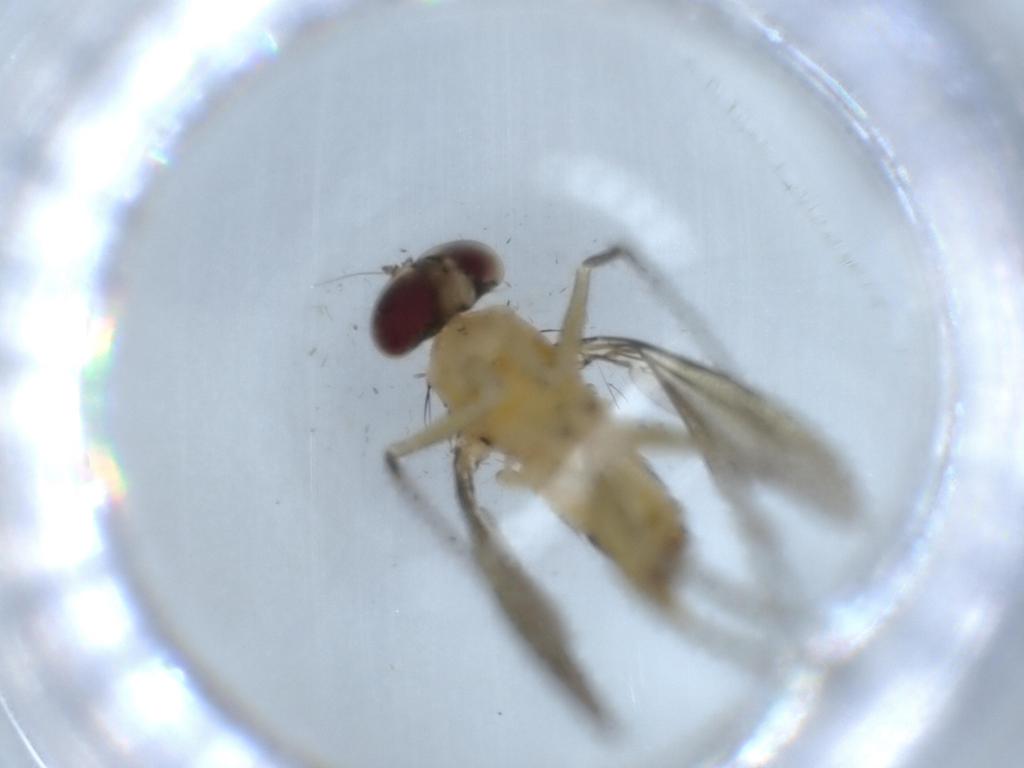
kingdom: Animalia
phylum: Arthropoda
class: Insecta
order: Diptera
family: Dolichopodidae
